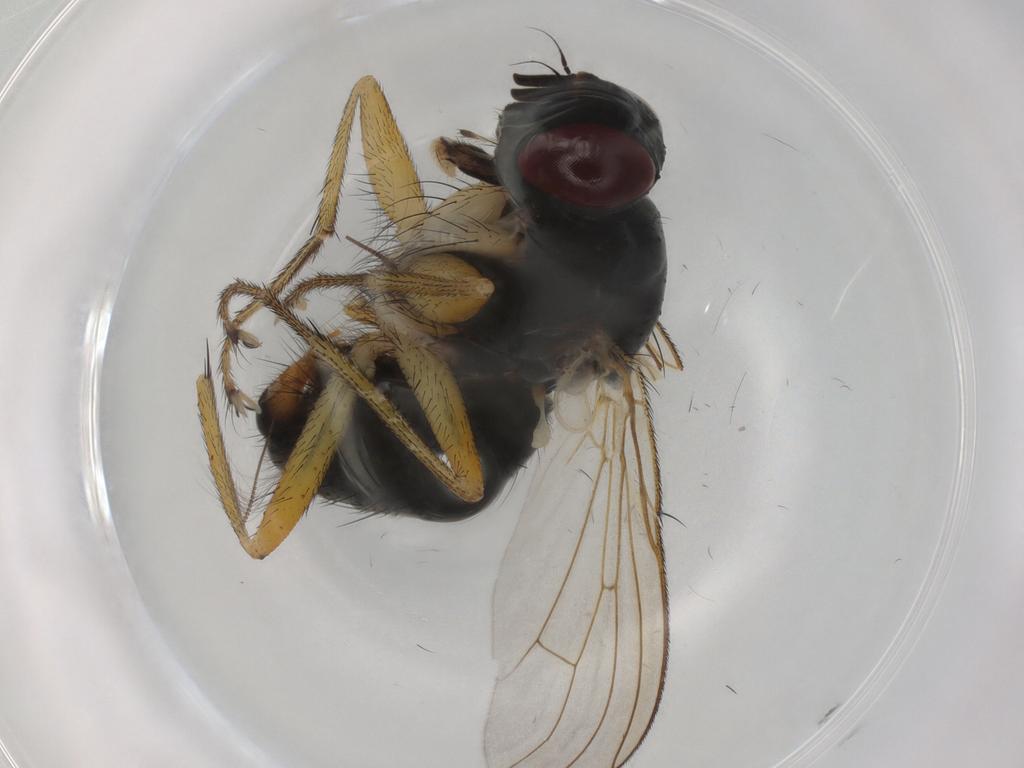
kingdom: Animalia
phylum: Arthropoda
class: Insecta
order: Diptera
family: Muscidae
